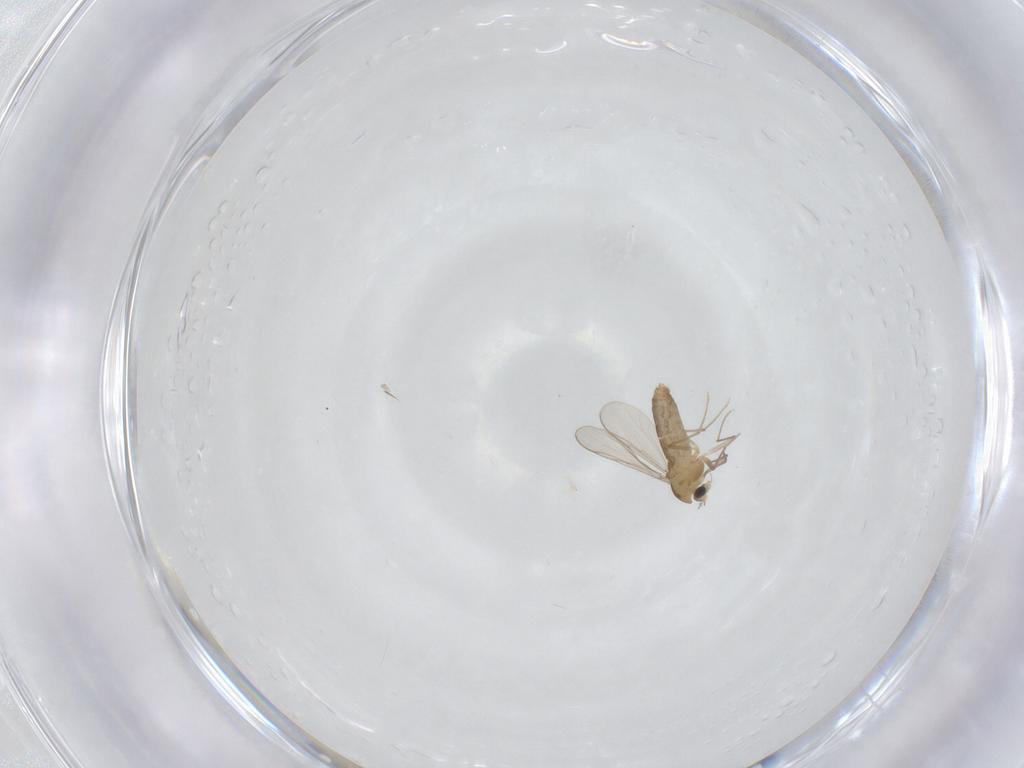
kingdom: Animalia
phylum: Arthropoda
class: Insecta
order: Diptera
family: Chironomidae
